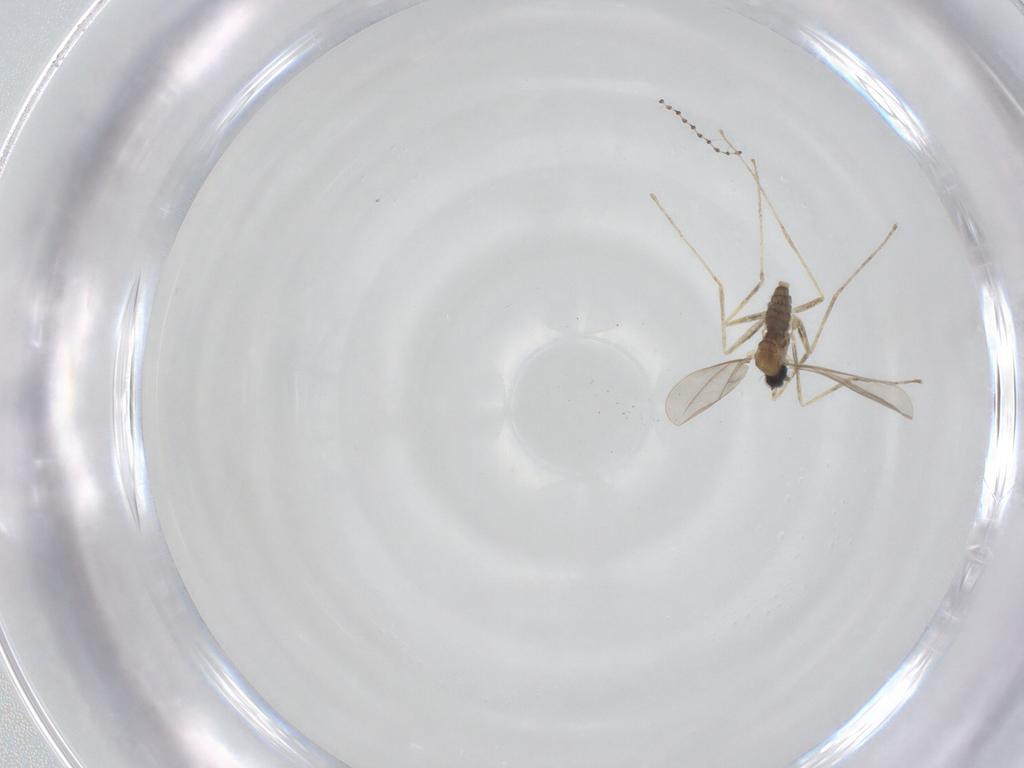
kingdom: Animalia
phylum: Arthropoda
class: Insecta
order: Diptera
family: Cecidomyiidae
